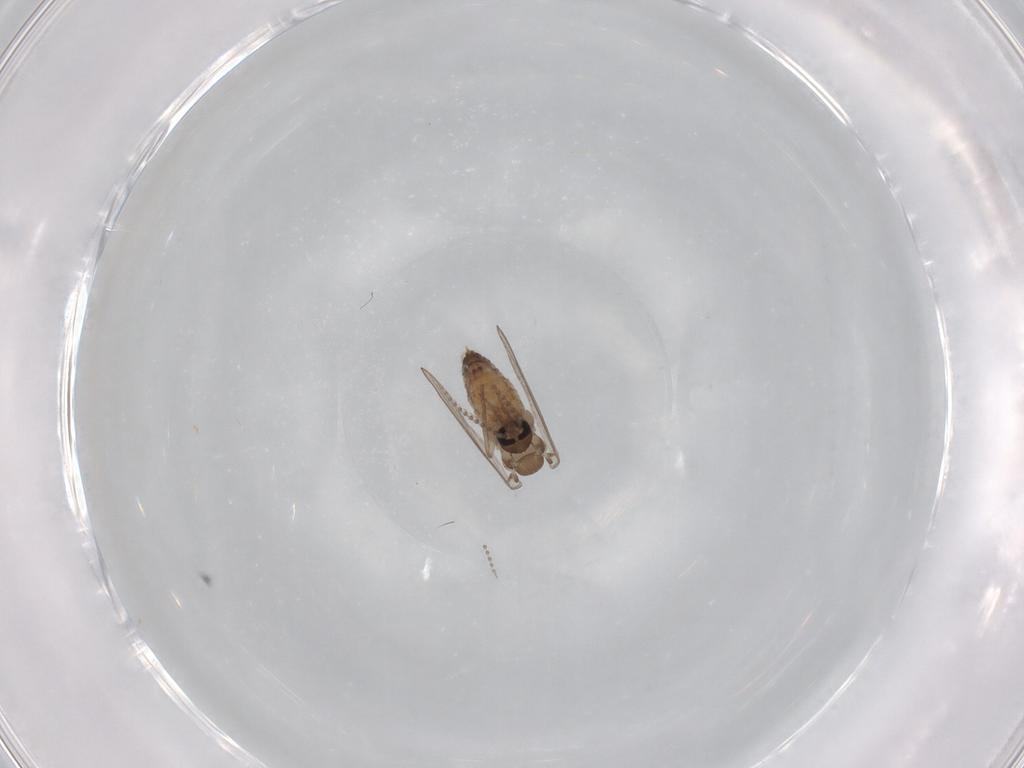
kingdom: Animalia
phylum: Arthropoda
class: Insecta
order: Diptera
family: Psychodidae
